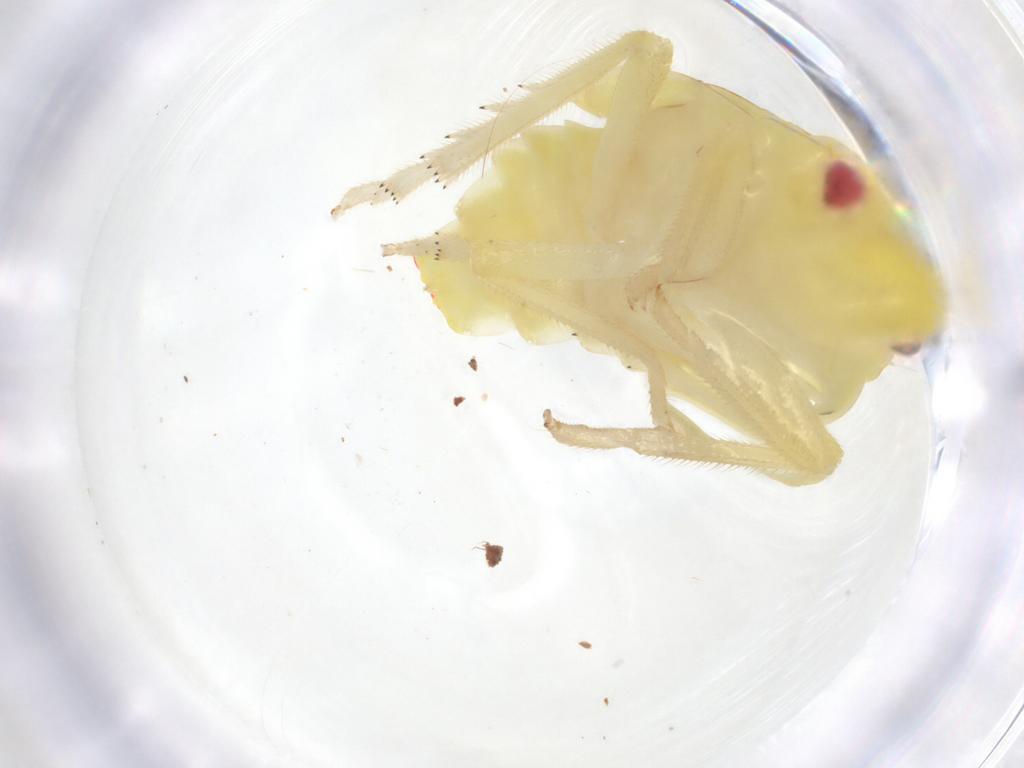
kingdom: Animalia
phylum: Arthropoda
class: Insecta
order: Hemiptera
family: Tropiduchidae
